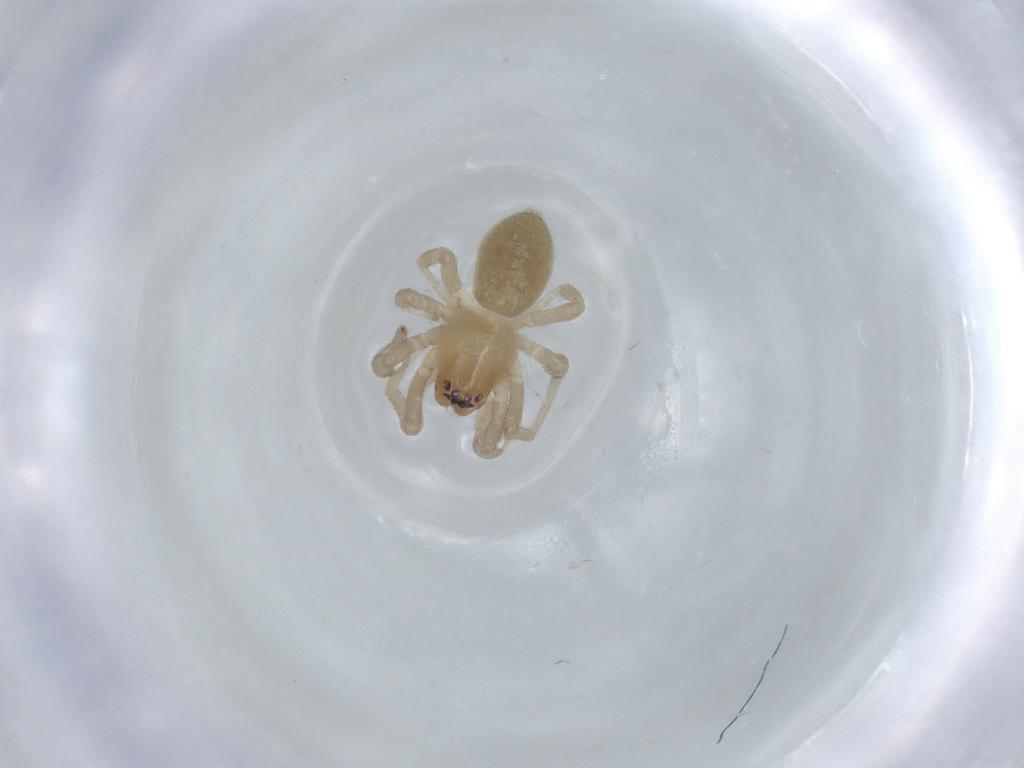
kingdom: Animalia
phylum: Arthropoda
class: Arachnida
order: Araneae
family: Trachelidae
